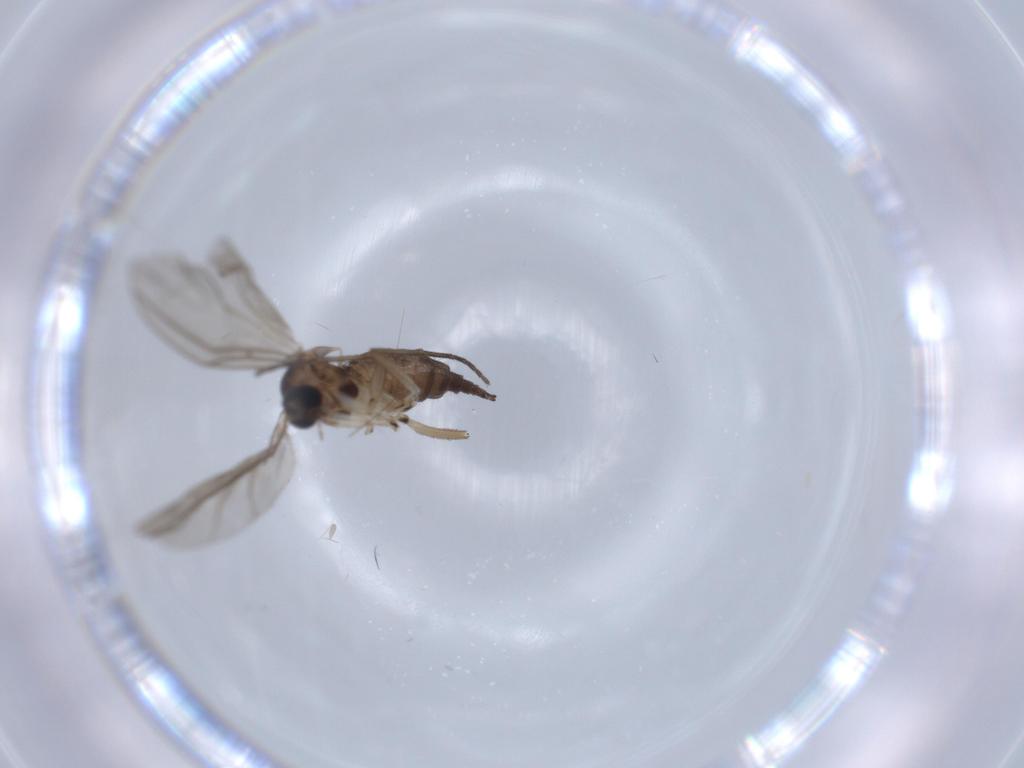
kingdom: Animalia
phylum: Arthropoda
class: Insecta
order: Diptera
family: Sciaridae
